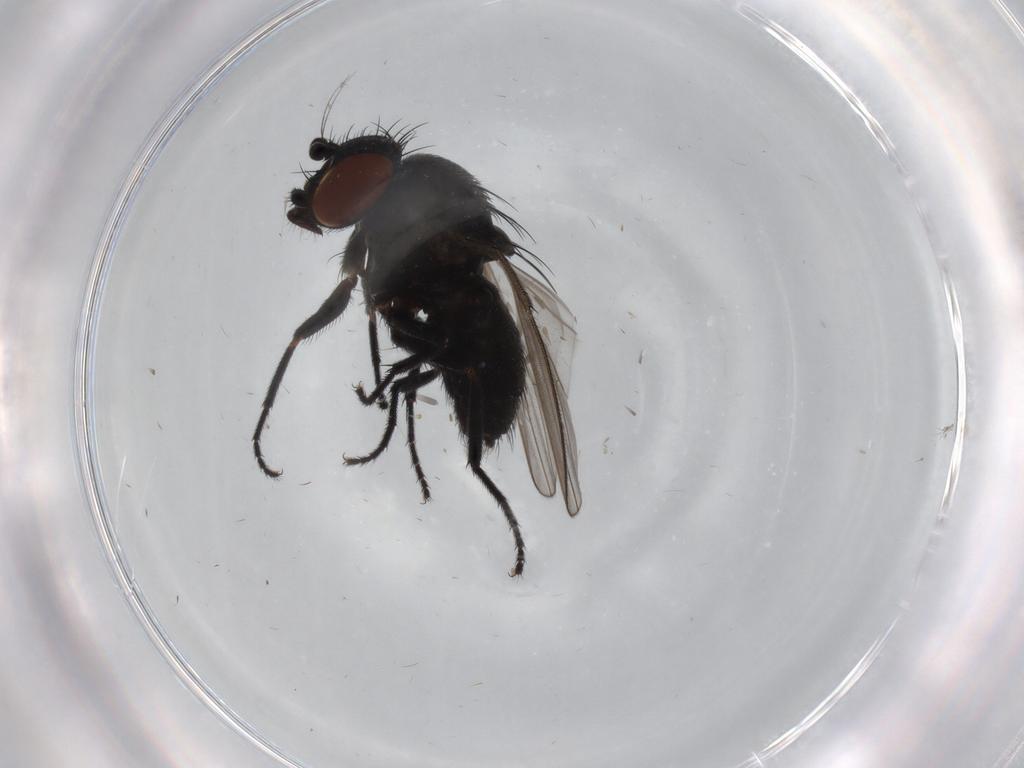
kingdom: Animalia
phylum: Arthropoda
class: Insecta
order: Diptera
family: Milichiidae
